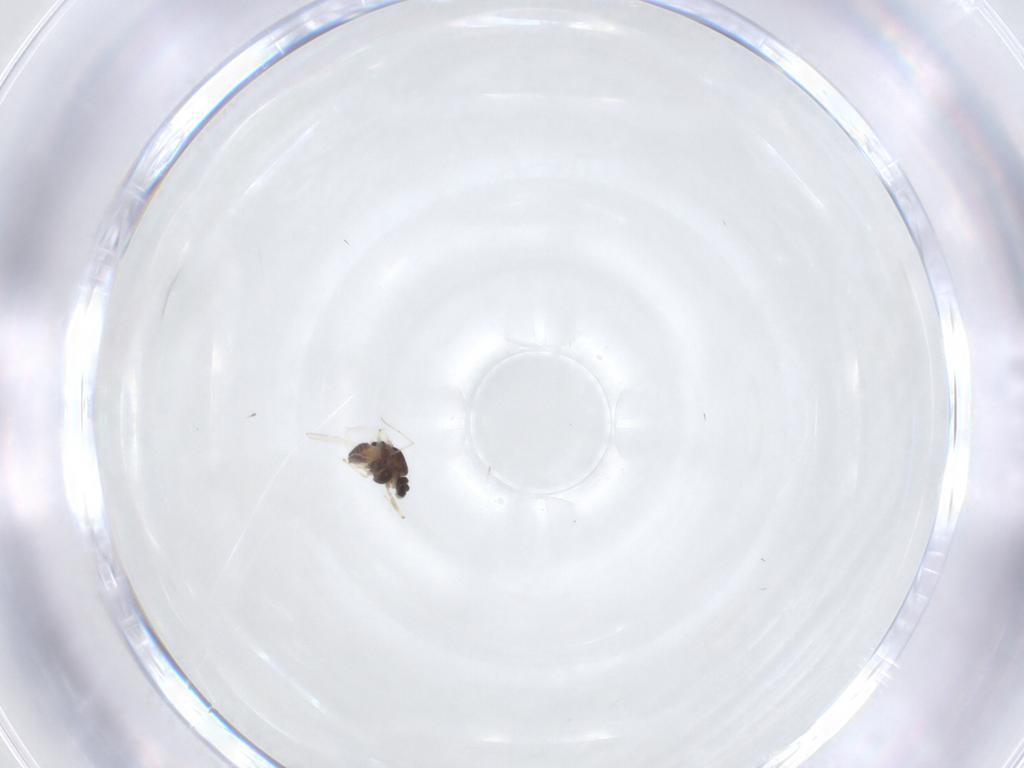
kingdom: Animalia
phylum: Arthropoda
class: Insecta
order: Diptera
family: Chironomidae
